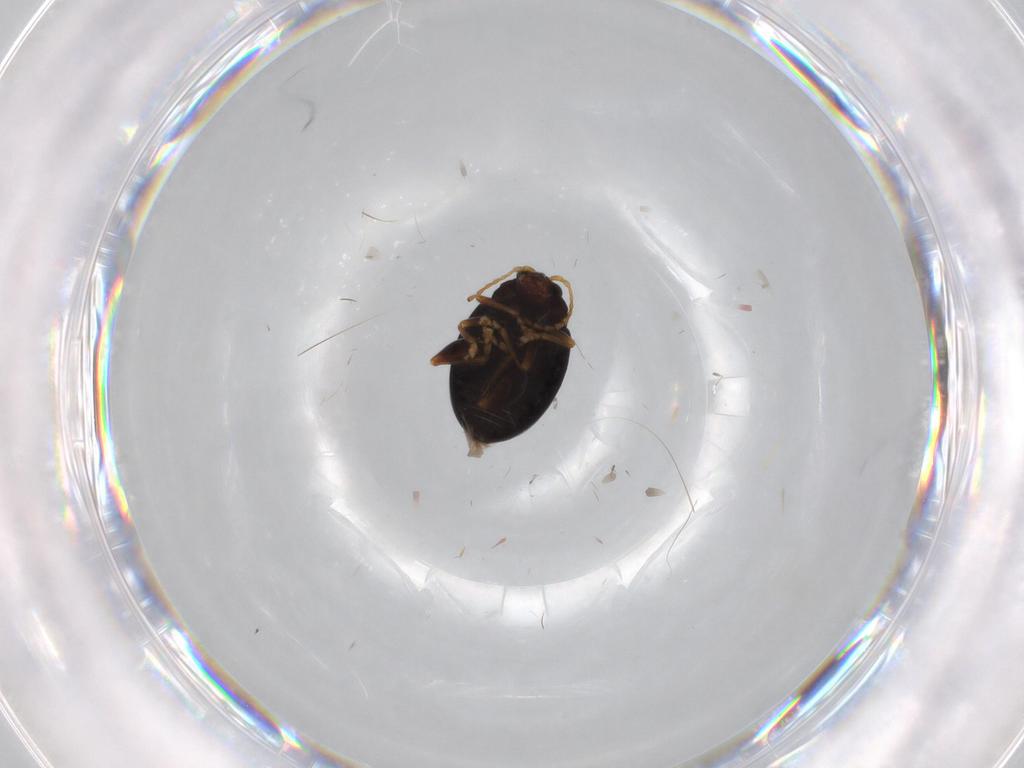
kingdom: Animalia
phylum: Arthropoda
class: Insecta
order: Coleoptera
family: Chrysomelidae
